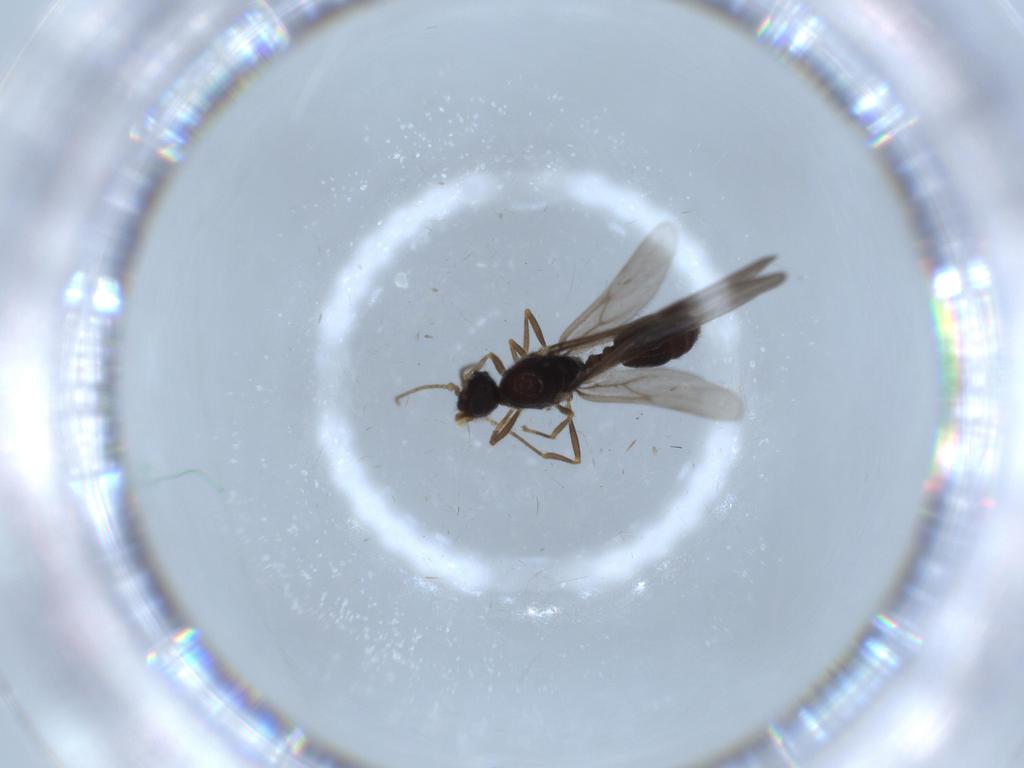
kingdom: Animalia
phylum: Arthropoda
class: Insecta
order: Hymenoptera
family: Formicidae
